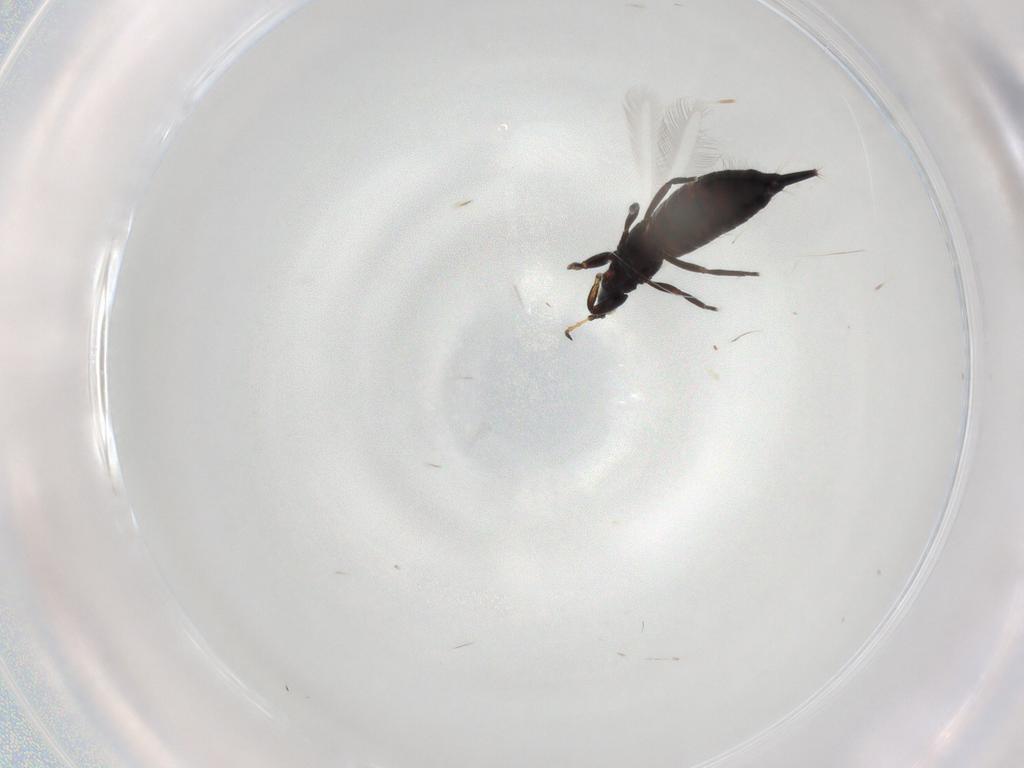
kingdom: Animalia
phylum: Arthropoda
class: Insecta
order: Thysanoptera
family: Phlaeothripidae
